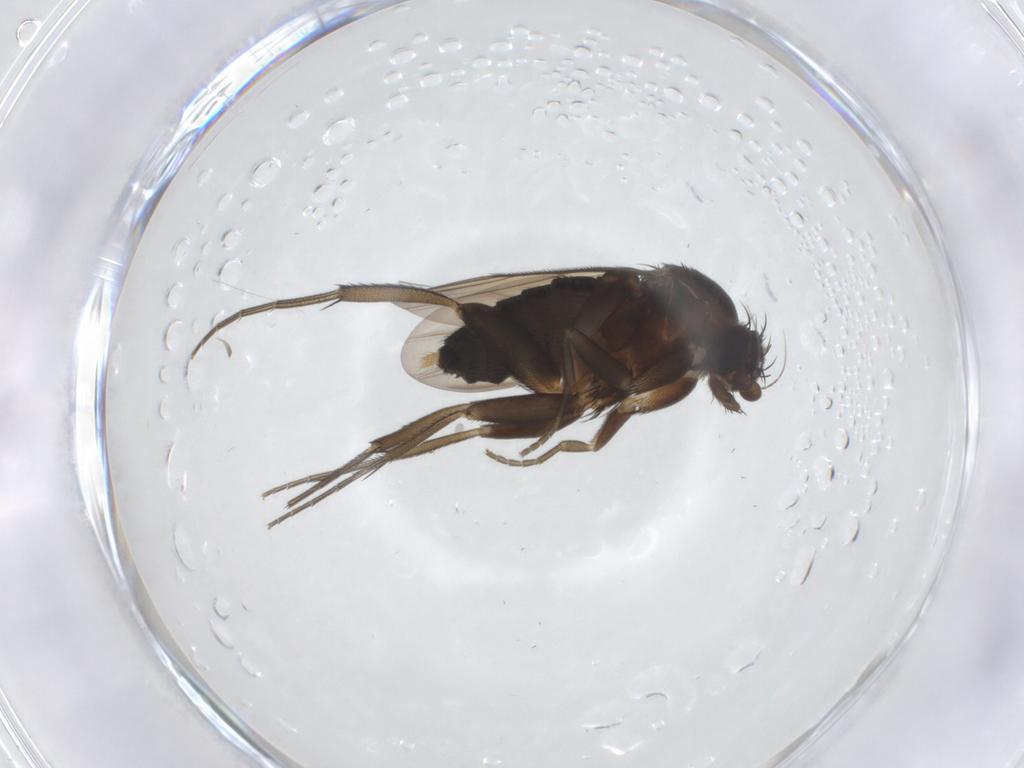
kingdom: Animalia
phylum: Arthropoda
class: Insecta
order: Diptera
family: Phoridae
